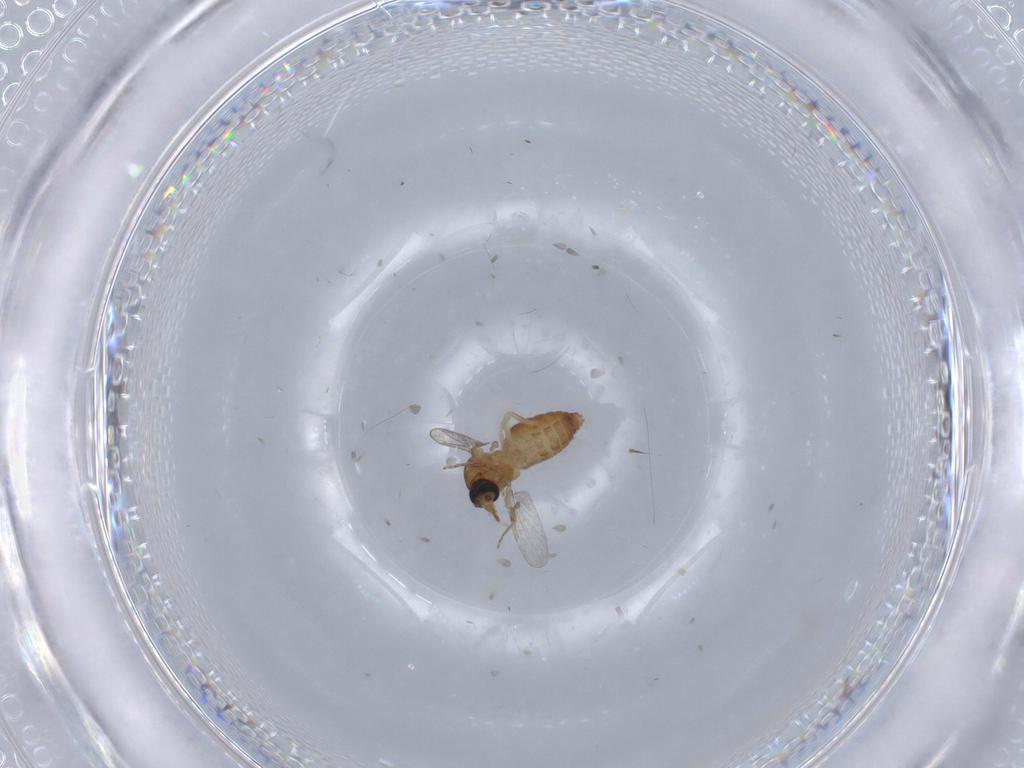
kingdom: Animalia
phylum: Arthropoda
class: Insecta
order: Diptera
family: Ceratopogonidae
